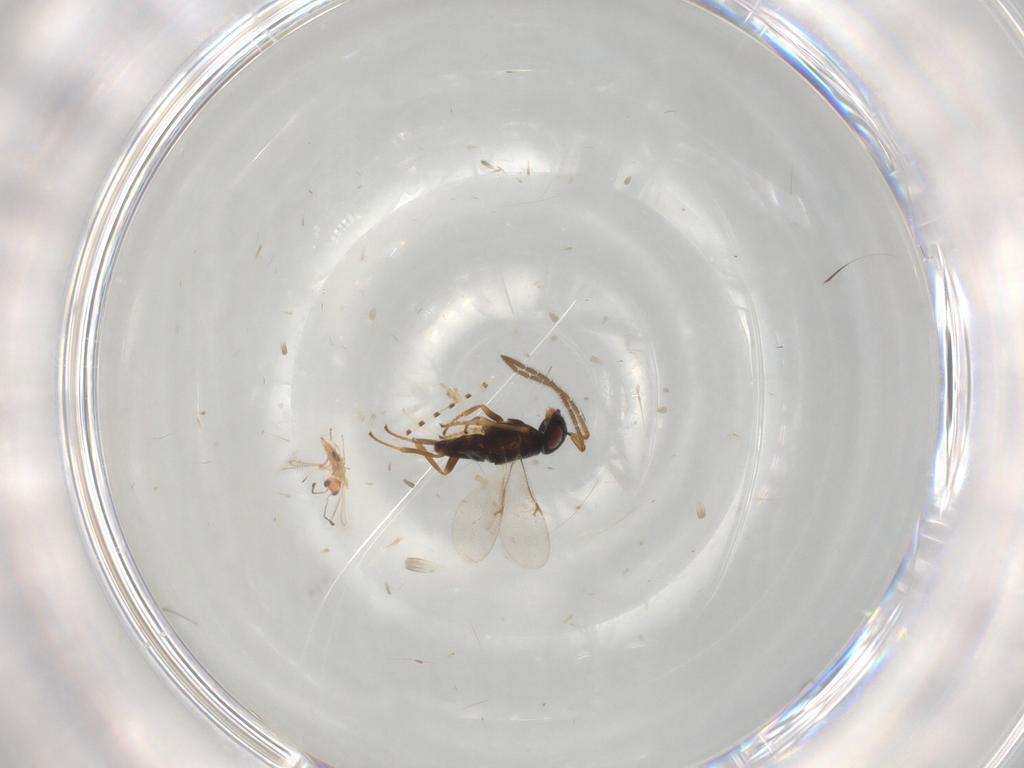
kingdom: Animalia
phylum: Arthropoda
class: Insecta
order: Hymenoptera
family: Mymaridae
